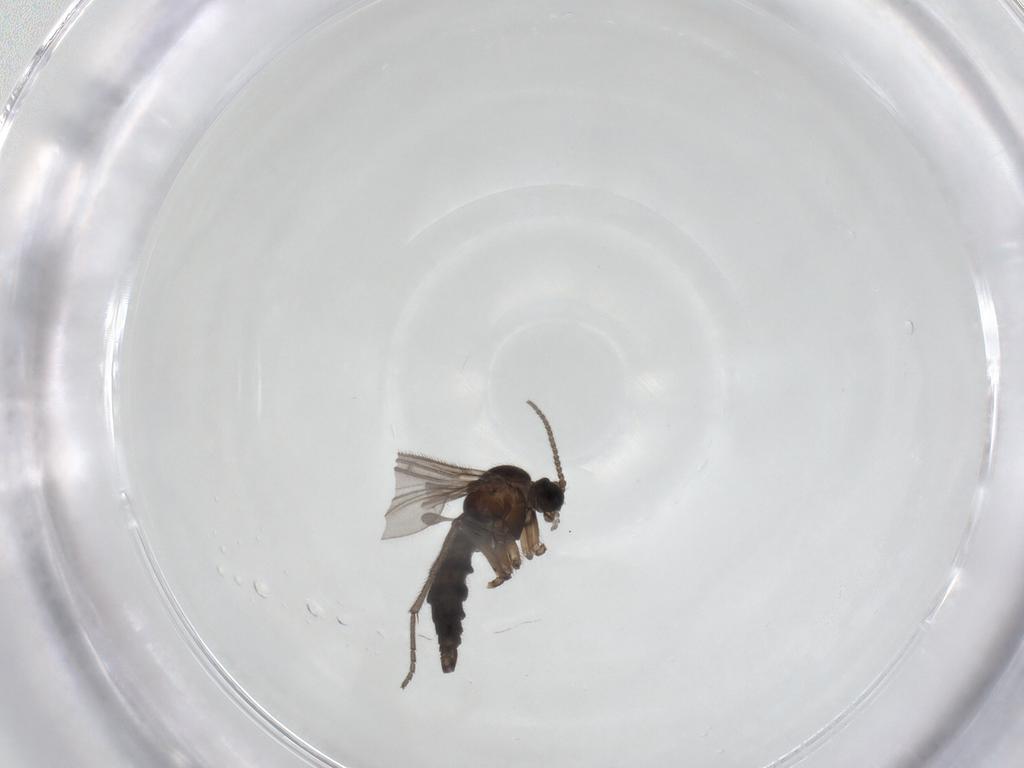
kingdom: Animalia
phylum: Arthropoda
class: Insecta
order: Diptera
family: Sciaridae
